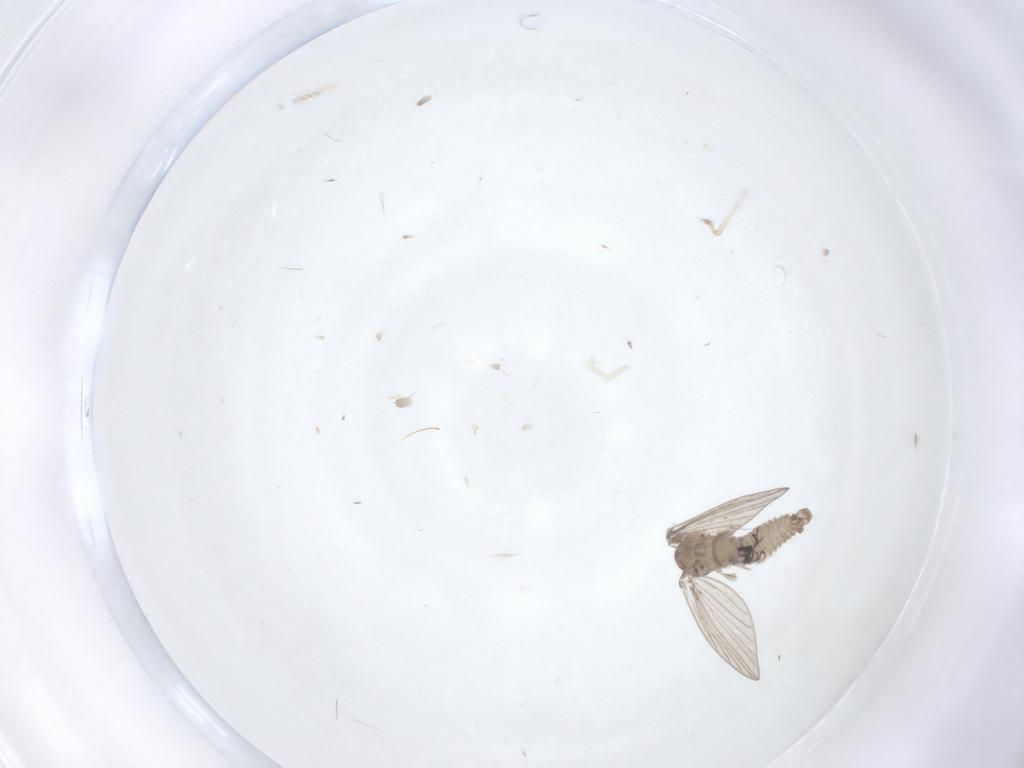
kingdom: Animalia
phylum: Arthropoda
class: Insecta
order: Diptera
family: Psychodidae
